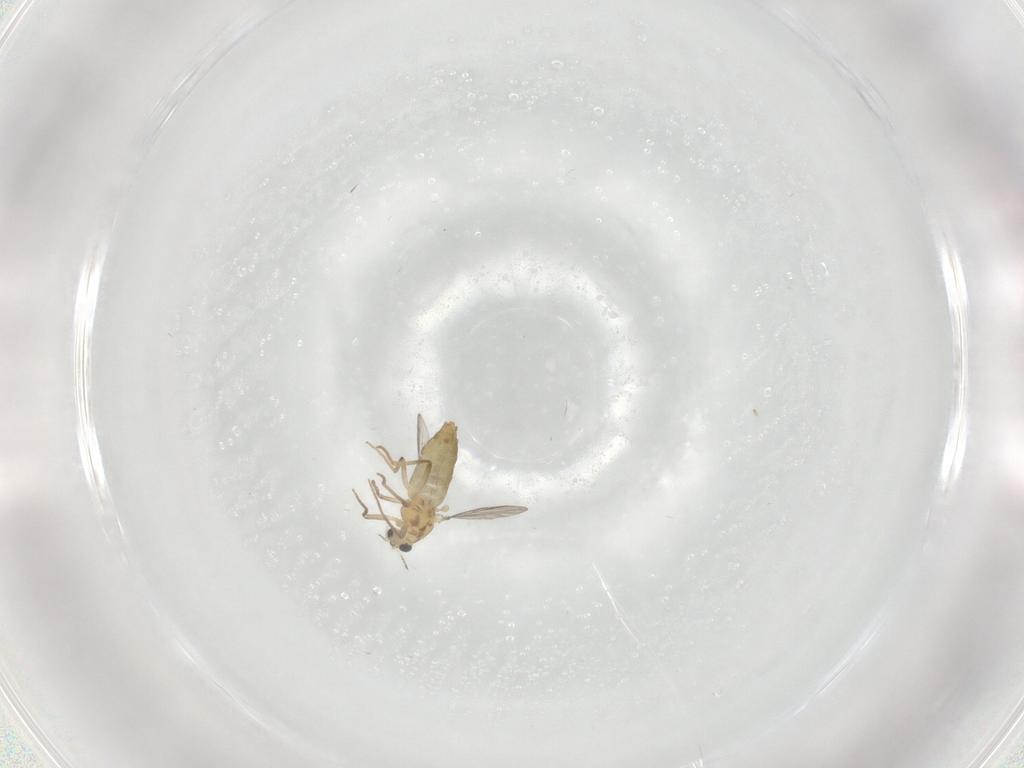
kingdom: Animalia
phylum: Arthropoda
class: Insecta
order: Diptera
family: Chironomidae
